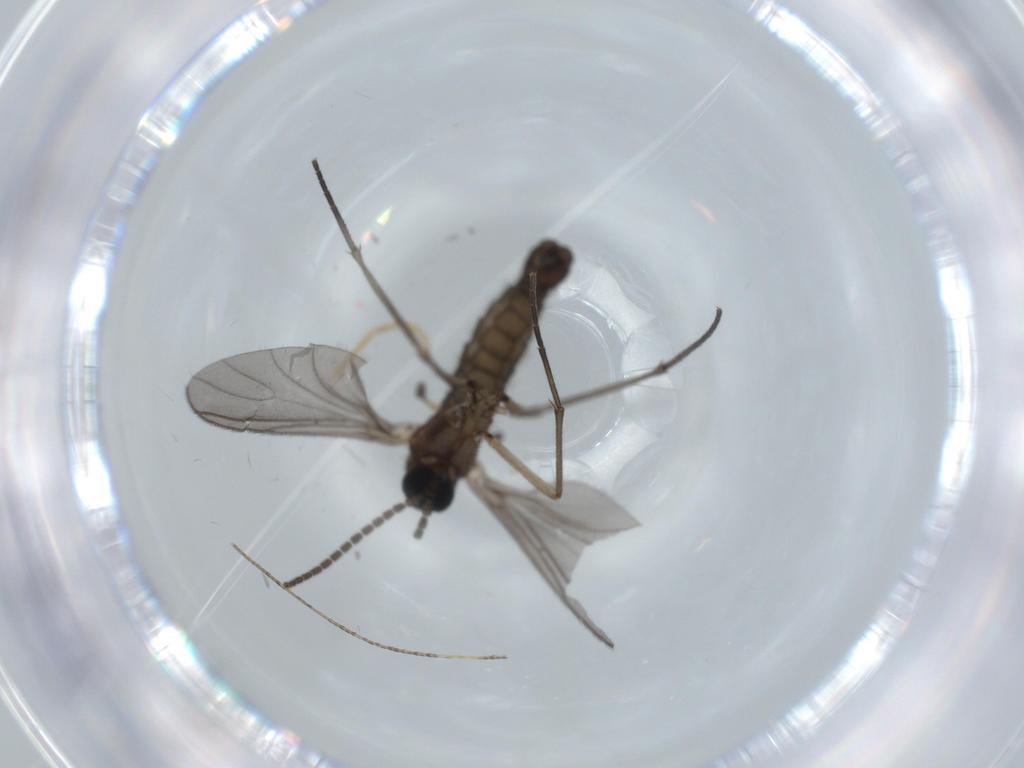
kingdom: Animalia
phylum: Arthropoda
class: Insecta
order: Diptera
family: Sciaridae
